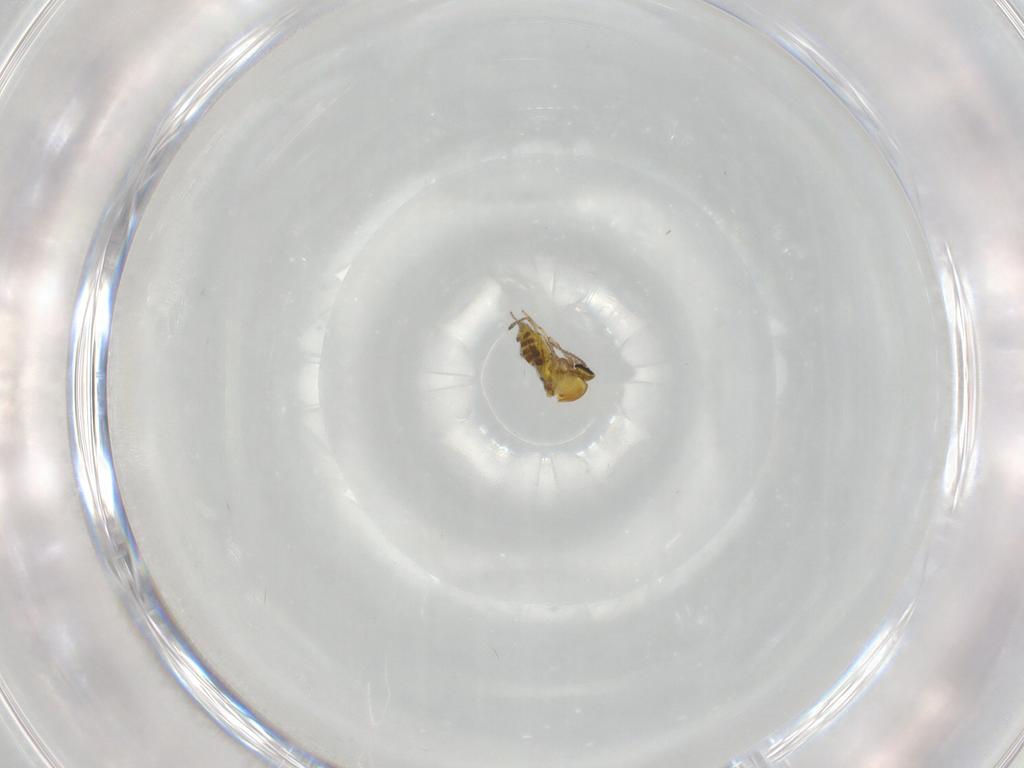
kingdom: Animalia
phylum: Arthropoda
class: Insecta
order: Diptera
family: Ceratopogonidae
